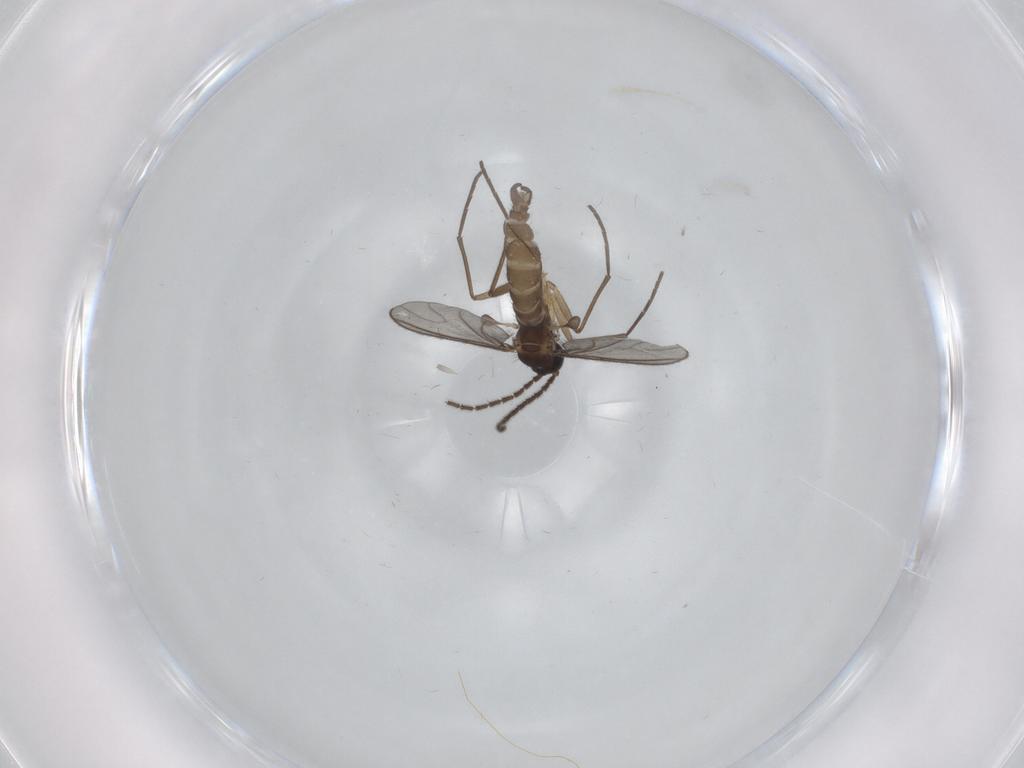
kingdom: Animalia
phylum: Arthropoda
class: Insecta
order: Diptera
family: Sciaridae
